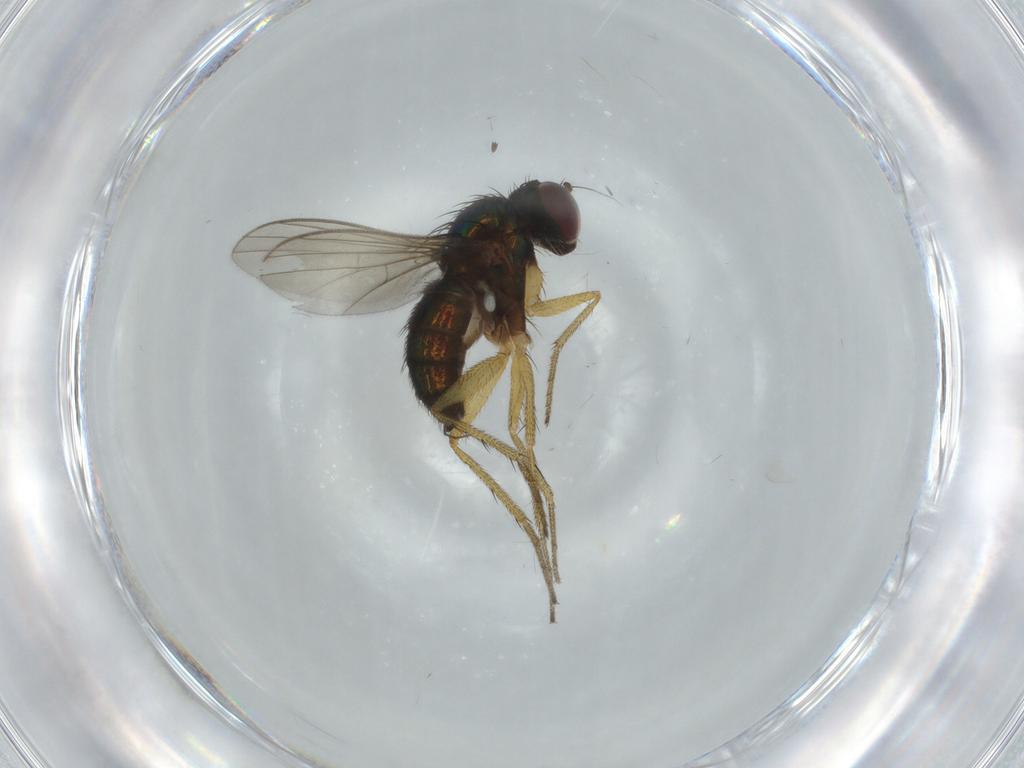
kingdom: Animalia
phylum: Arthropoda
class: Insecta
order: Diptera
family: Dolichopodidae
